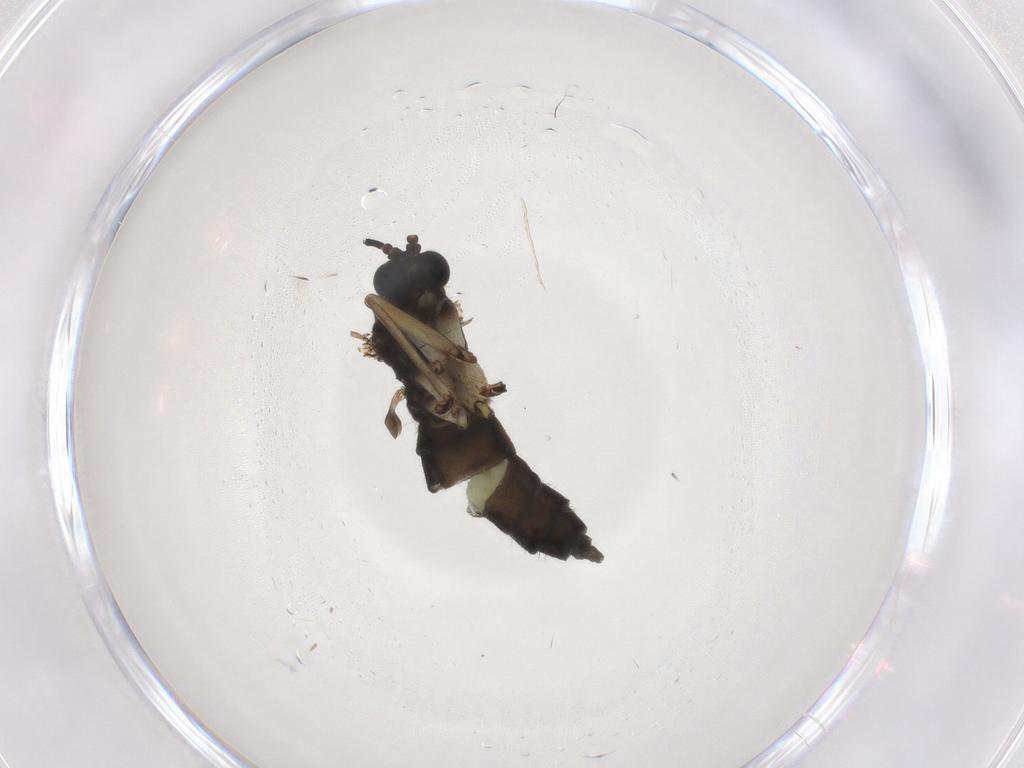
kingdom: Animalia
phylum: Arthropoda
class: Insecta
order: Diptera
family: Sciaridae
